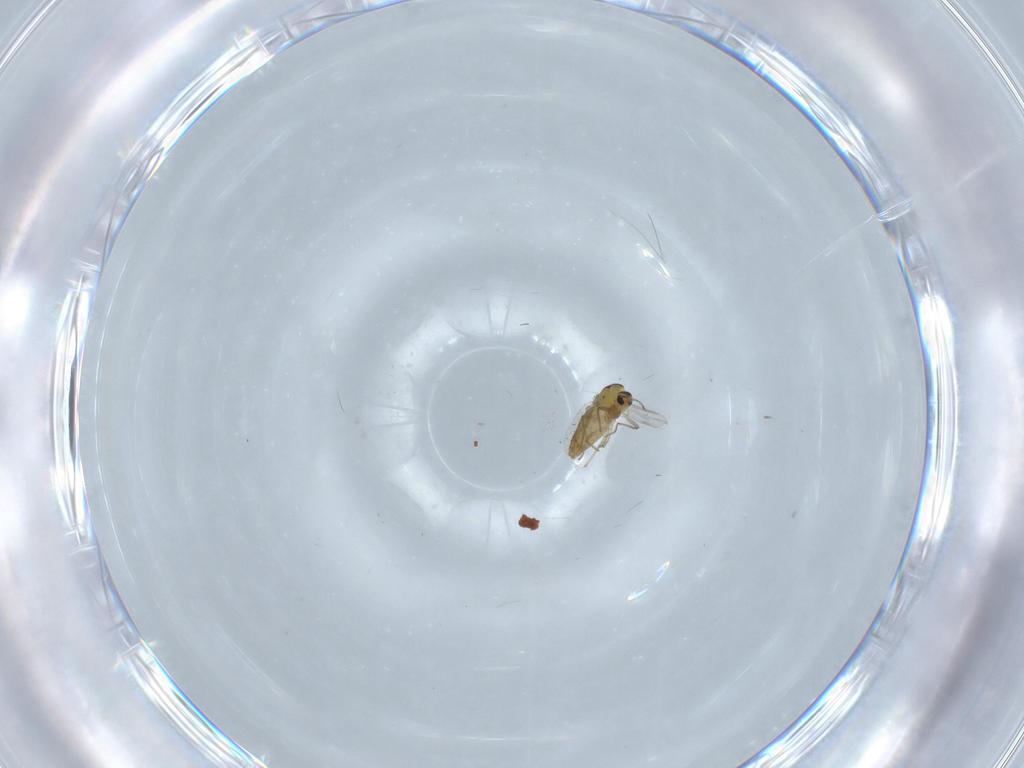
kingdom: Animalia
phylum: Arthropoda
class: Insecta
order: Diptera
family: Chironomidae
